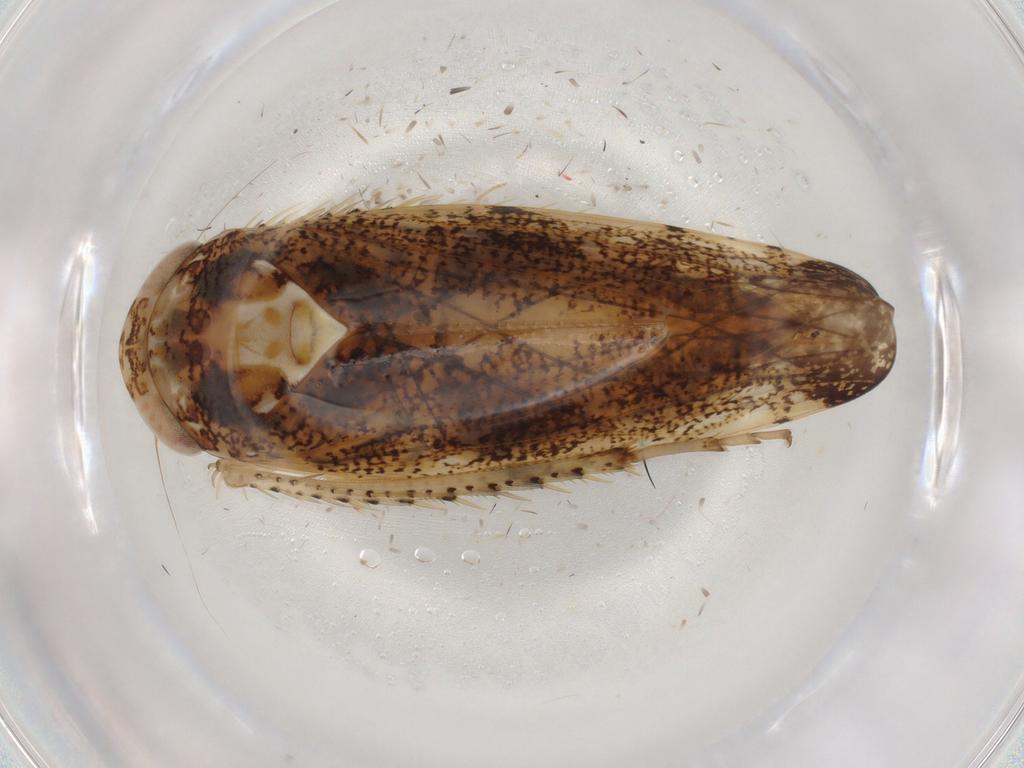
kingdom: Animalia
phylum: Arthropoda
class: Insecta
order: Hemiptera
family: Cicadellidae
